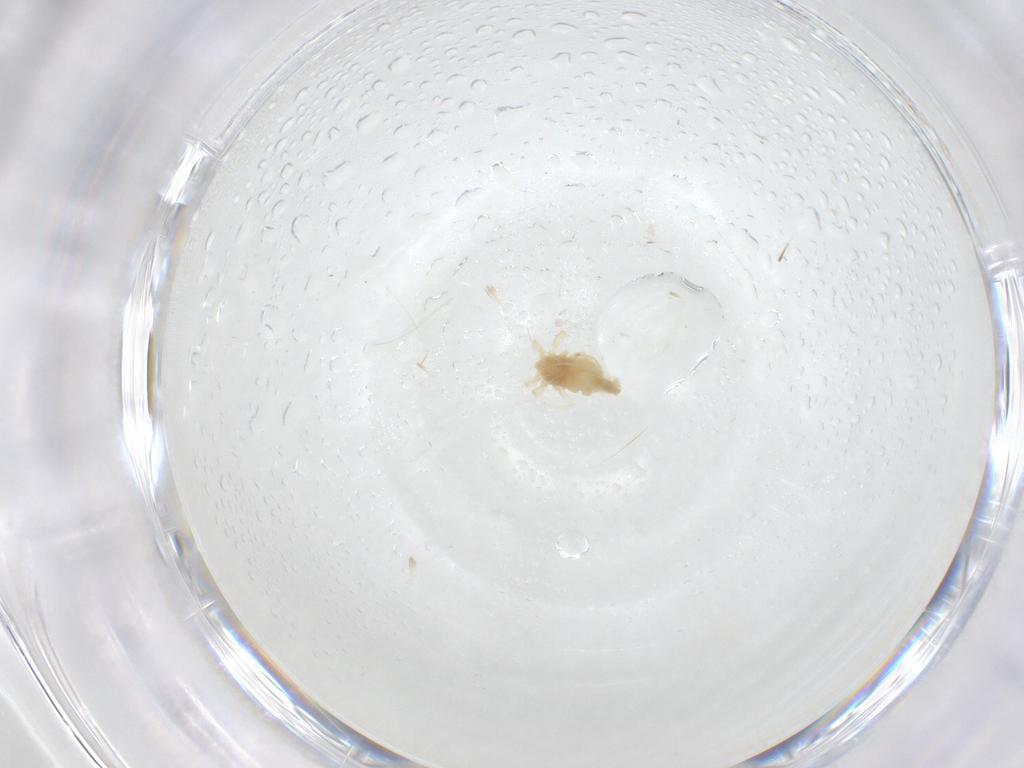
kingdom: Animalia
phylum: Arthropoda
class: Arachnida
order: Trombidiformes
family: Anystidae
